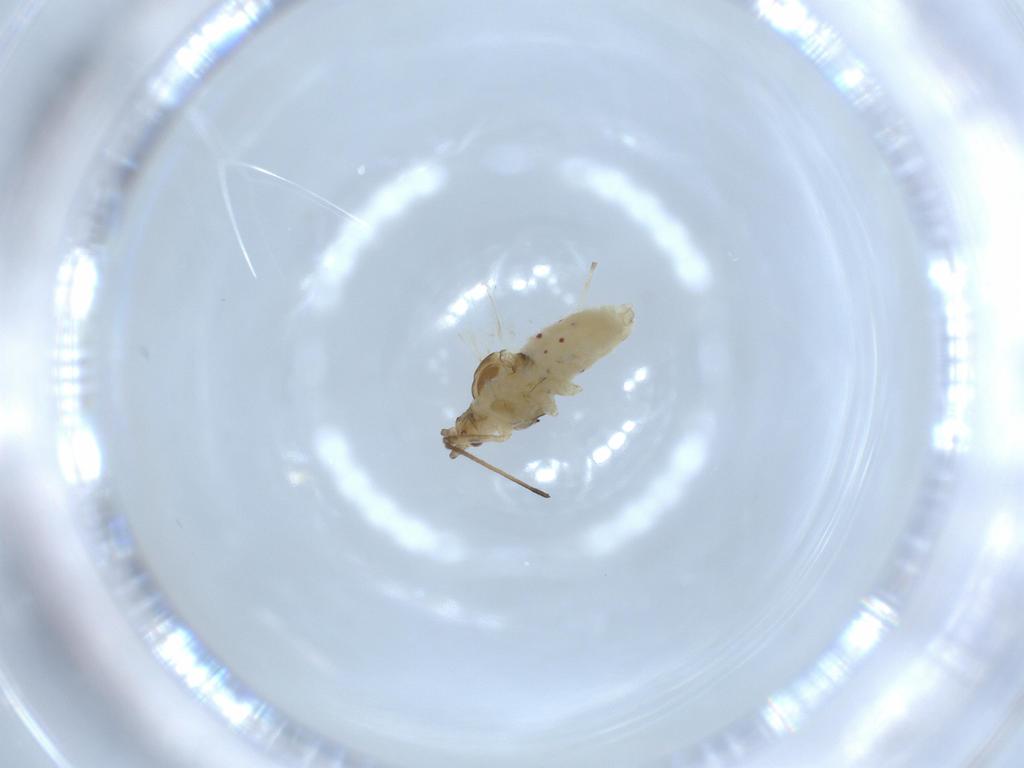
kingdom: Animalia
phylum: Arthropoda
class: Insecta
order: Hemiptera
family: Aphididae
